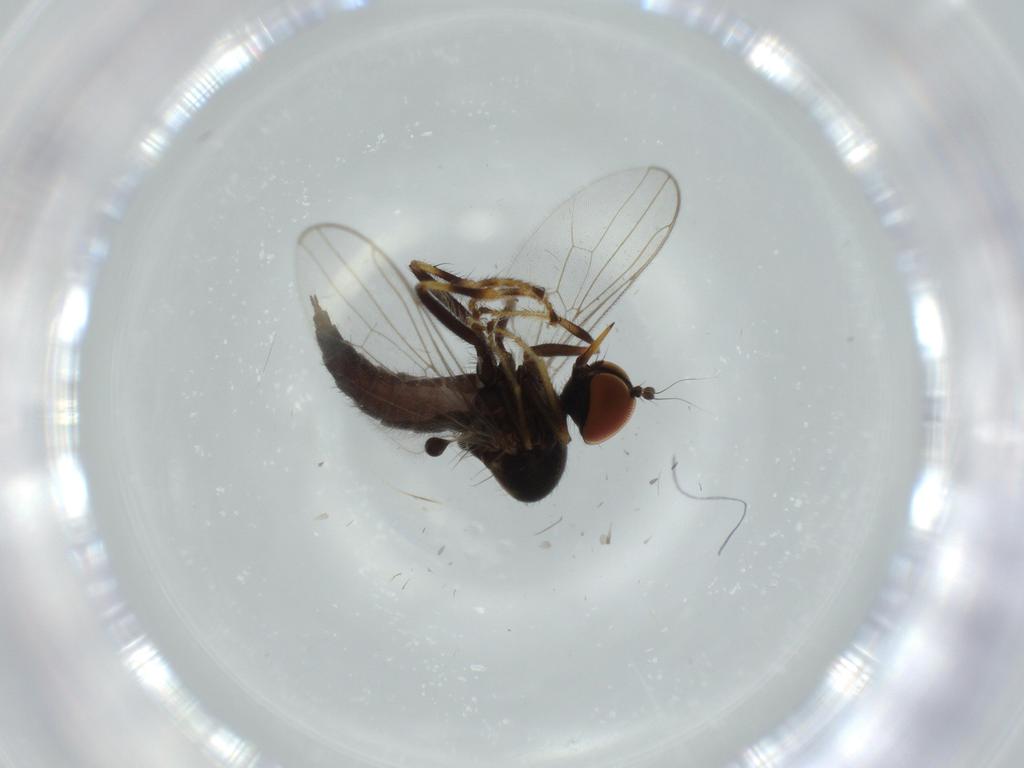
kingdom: Animalia
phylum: Arthropoda
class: Insecta
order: Diptera
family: Hybotidae
